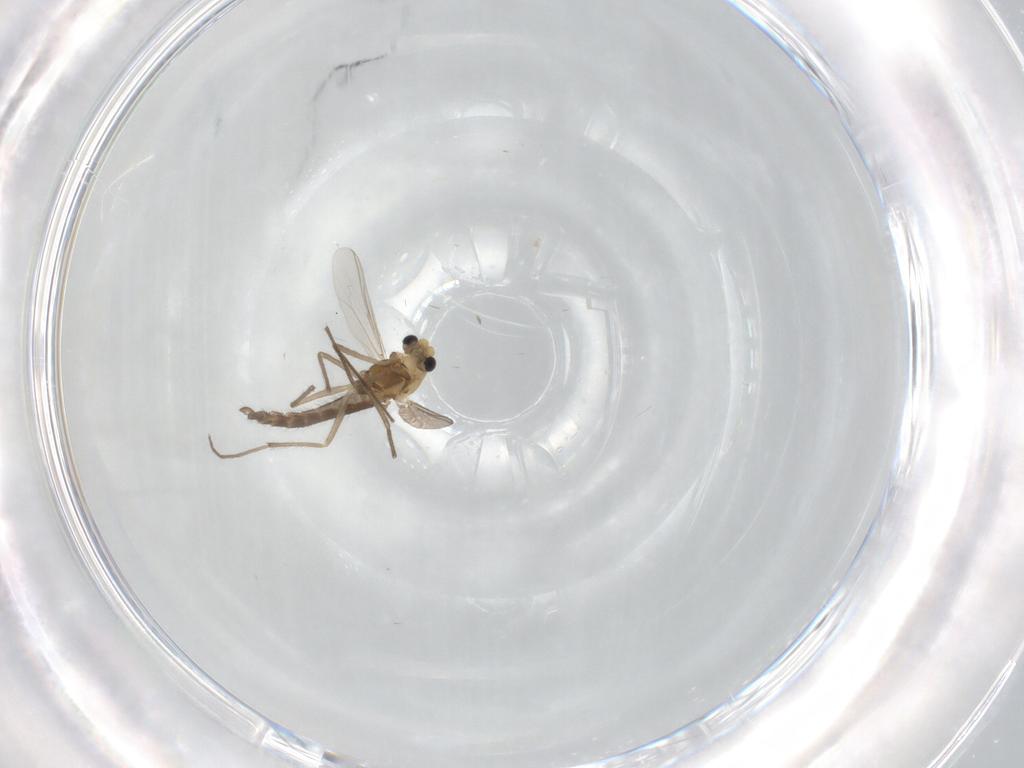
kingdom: Animalia
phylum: Arthropoda
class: Insecta
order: Diptera
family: Chironomidae
